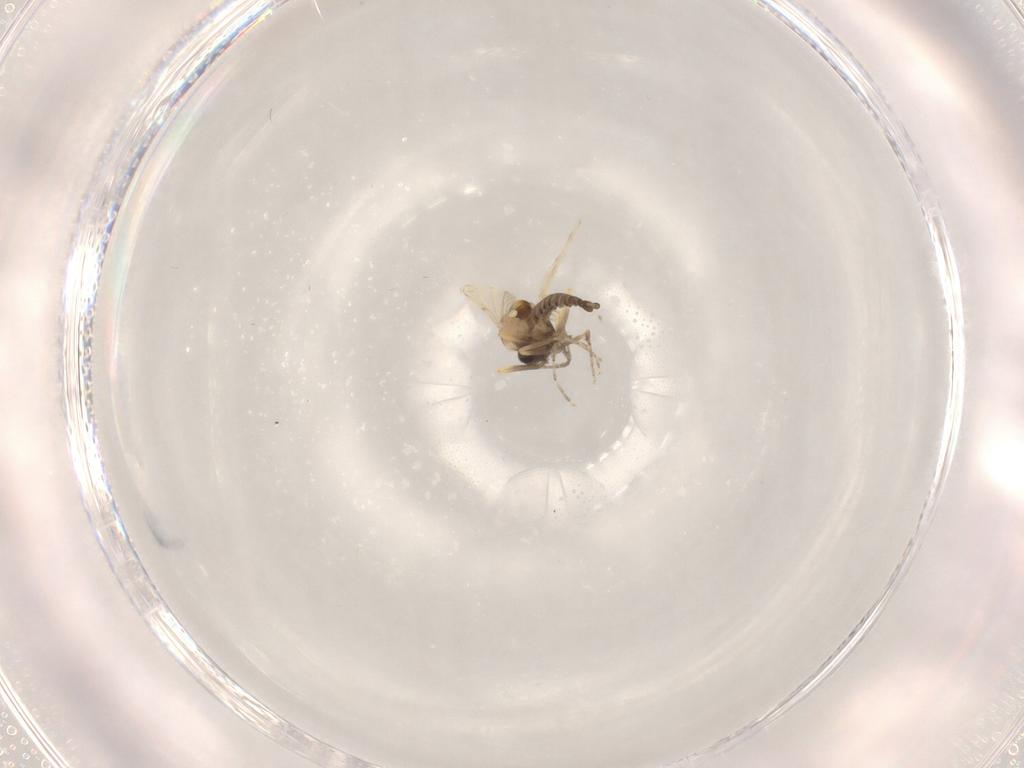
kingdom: Animalia
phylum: Arthropoda
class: Insecta
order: Diptera
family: Ceratopogonidae
